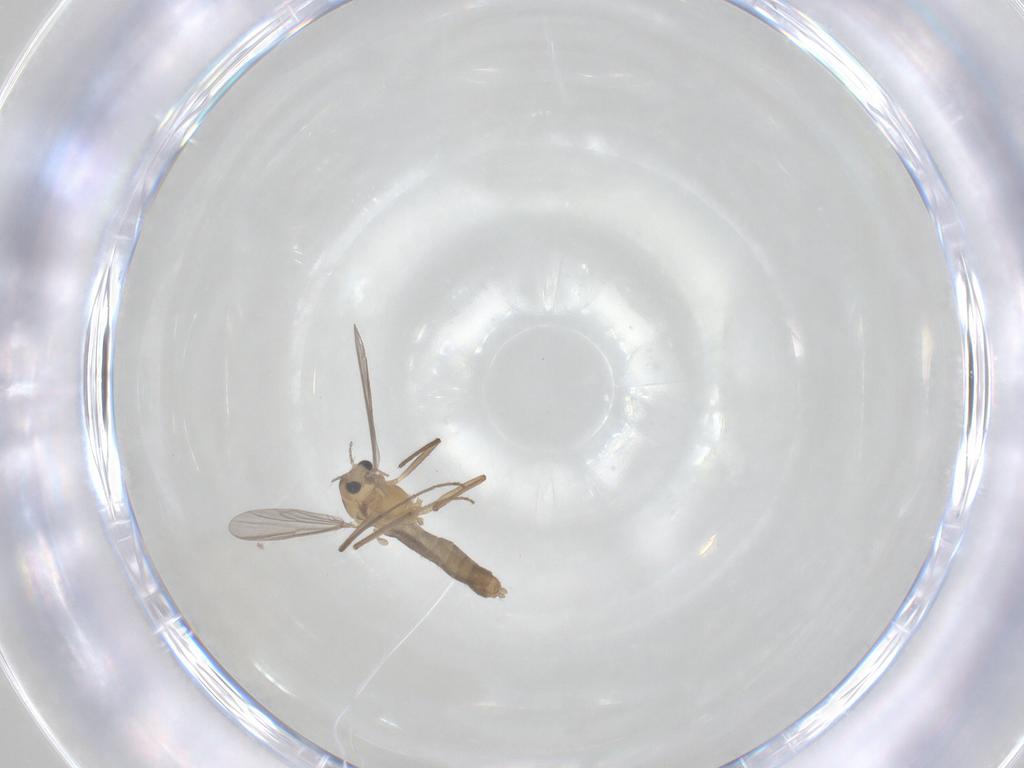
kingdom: Animalia
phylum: Arthropoda
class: Insecta
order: Diptera
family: Chironomidae
